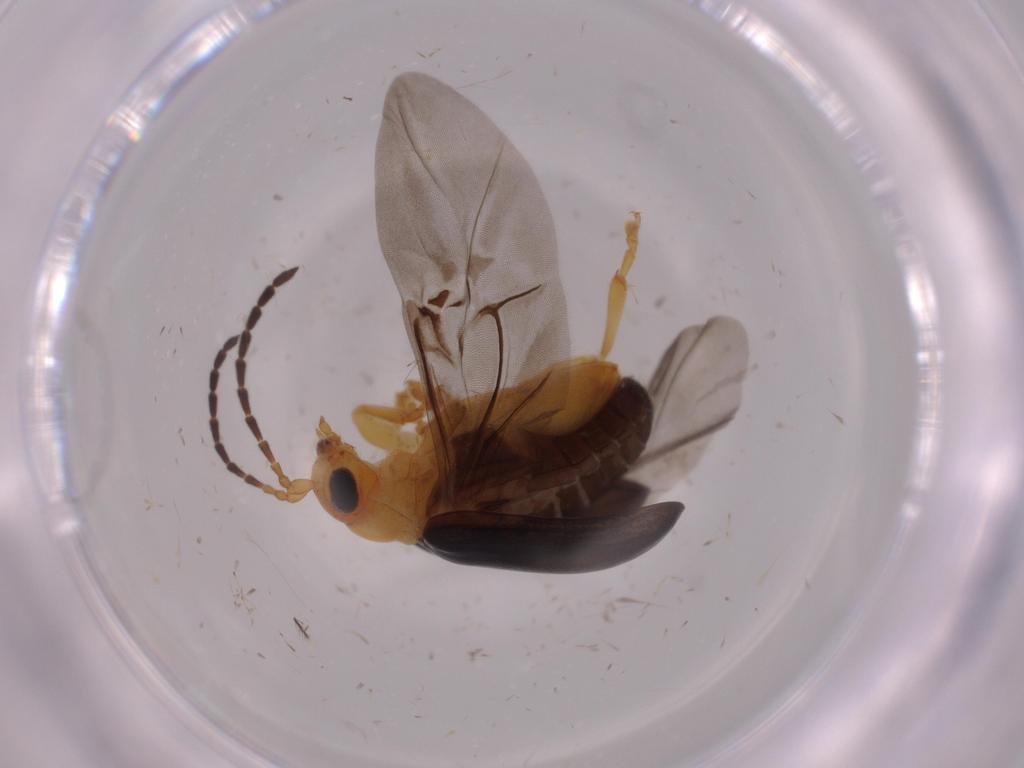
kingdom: Animalia
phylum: Arthropoda
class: Insecta
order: Coleoptera
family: Chrysomelidae
